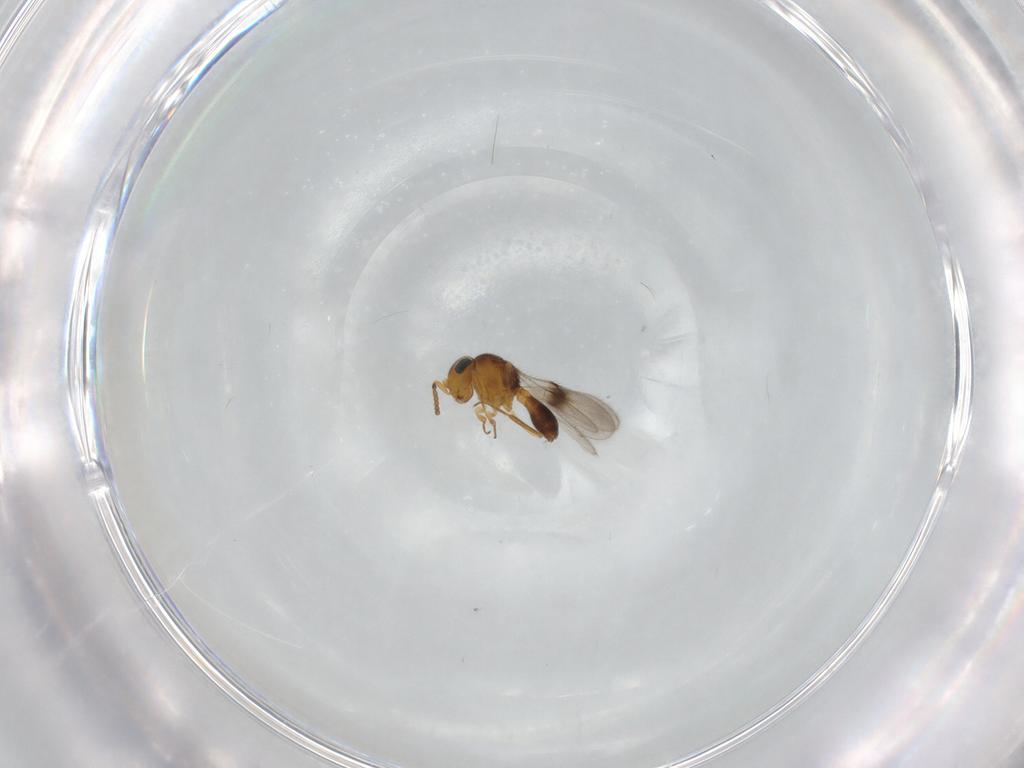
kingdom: Animalia
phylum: Arthropoda
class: Insecta
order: Hymenoptera
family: Scelionidae
